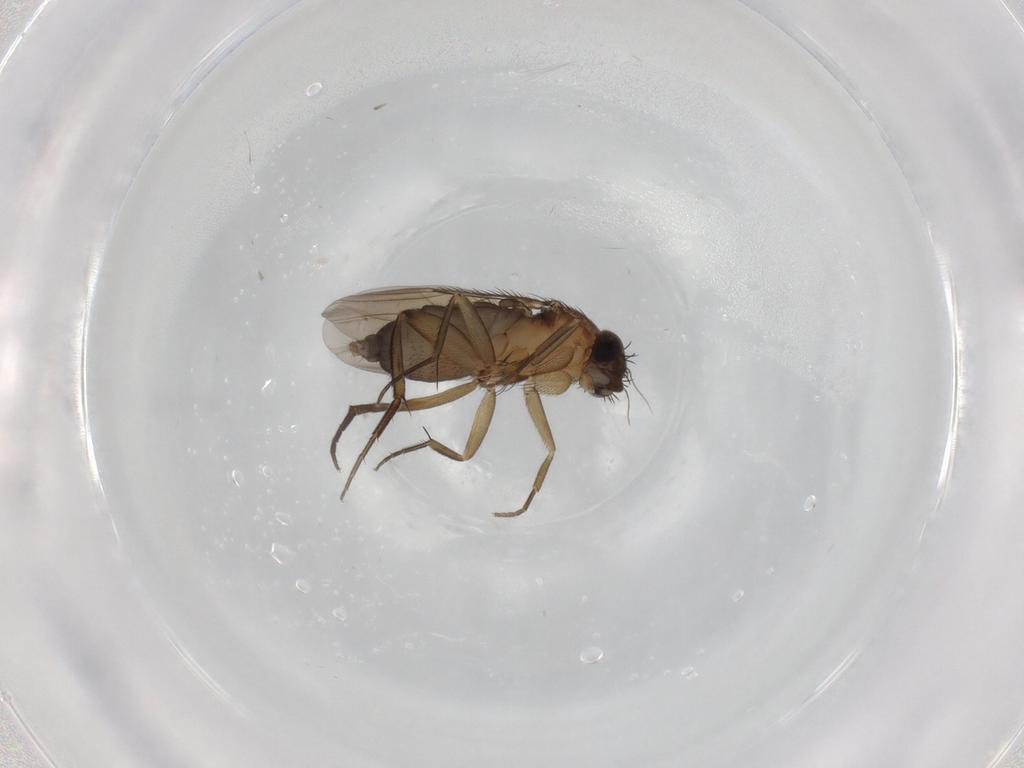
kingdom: Animalia
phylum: Arthropoda
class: Insecta
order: Diptera
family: Phoridae
